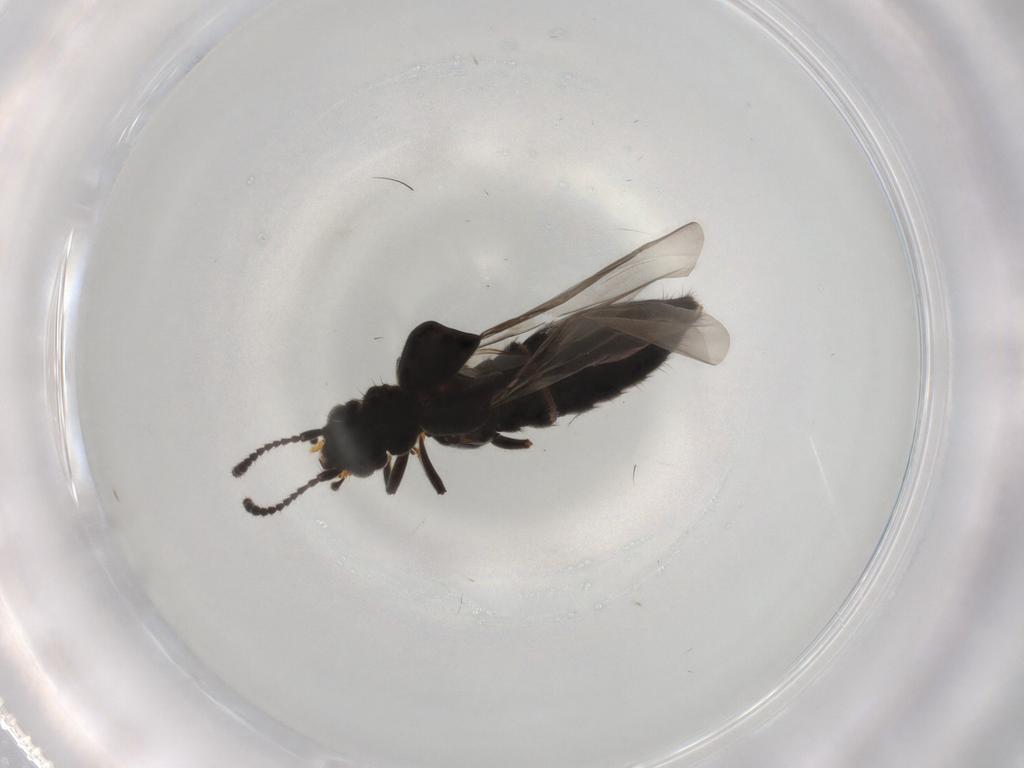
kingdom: Animalia
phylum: Arthropoda
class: Insecta
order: Coleoptera
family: Staphylinidae
